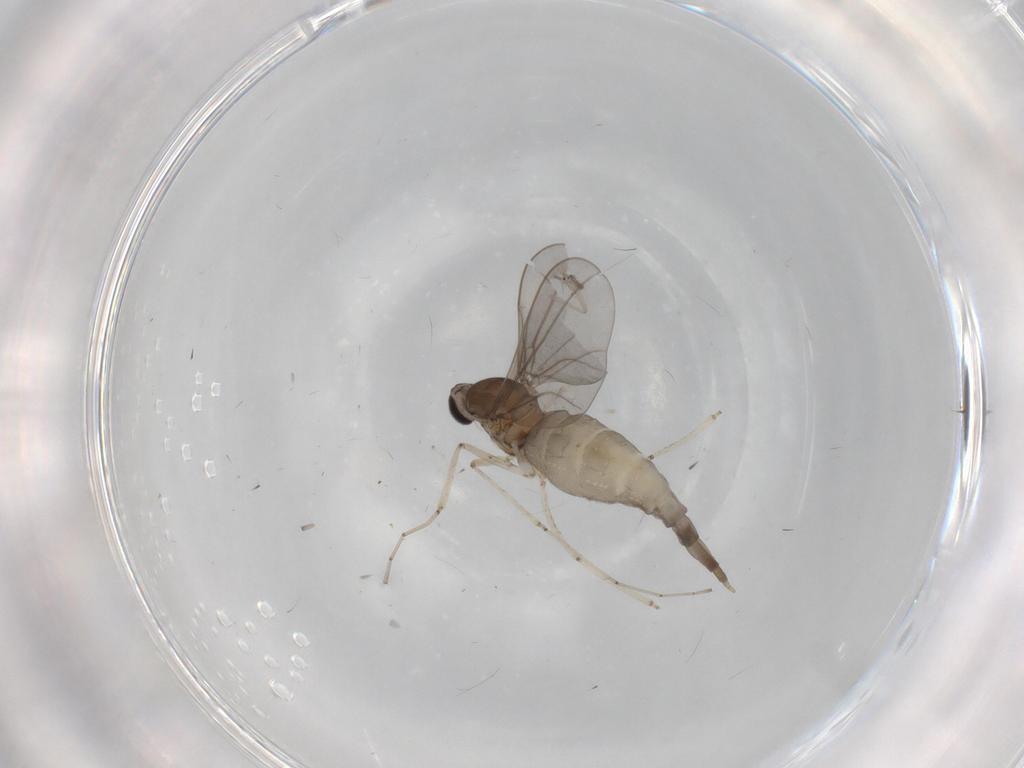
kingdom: Animalia
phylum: Arthropoda
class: Insecta
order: Diptera
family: Cecidomyiidae
